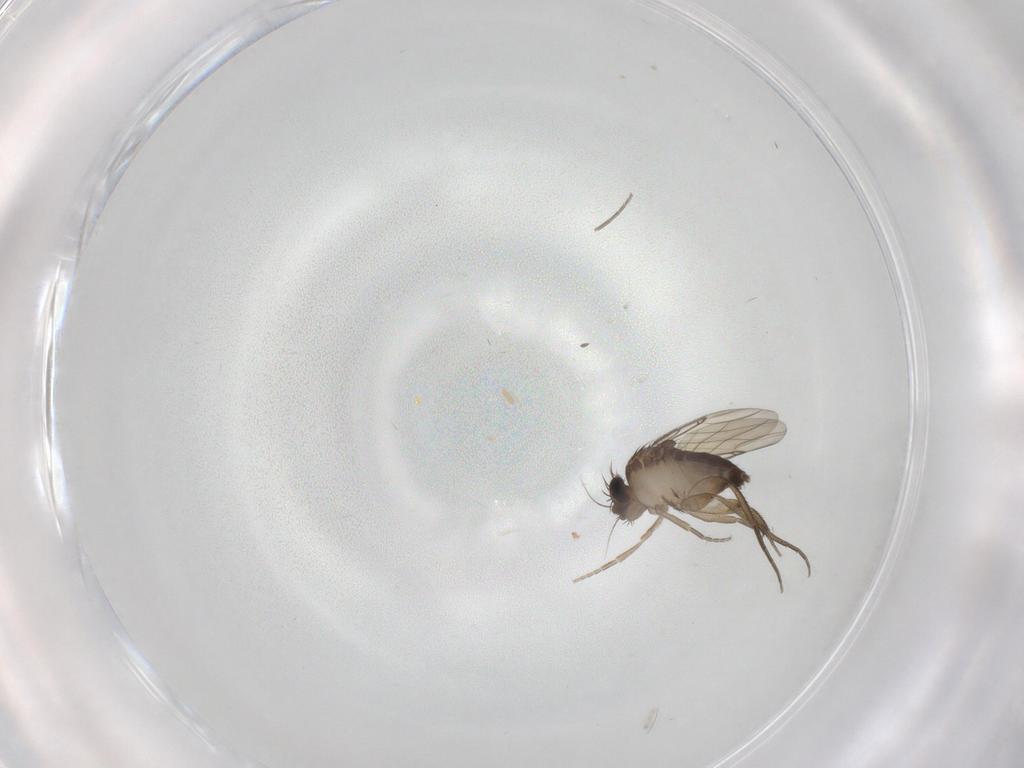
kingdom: Animalia
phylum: Arthropoda
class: Insecta
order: Diptera
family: Phoridae
